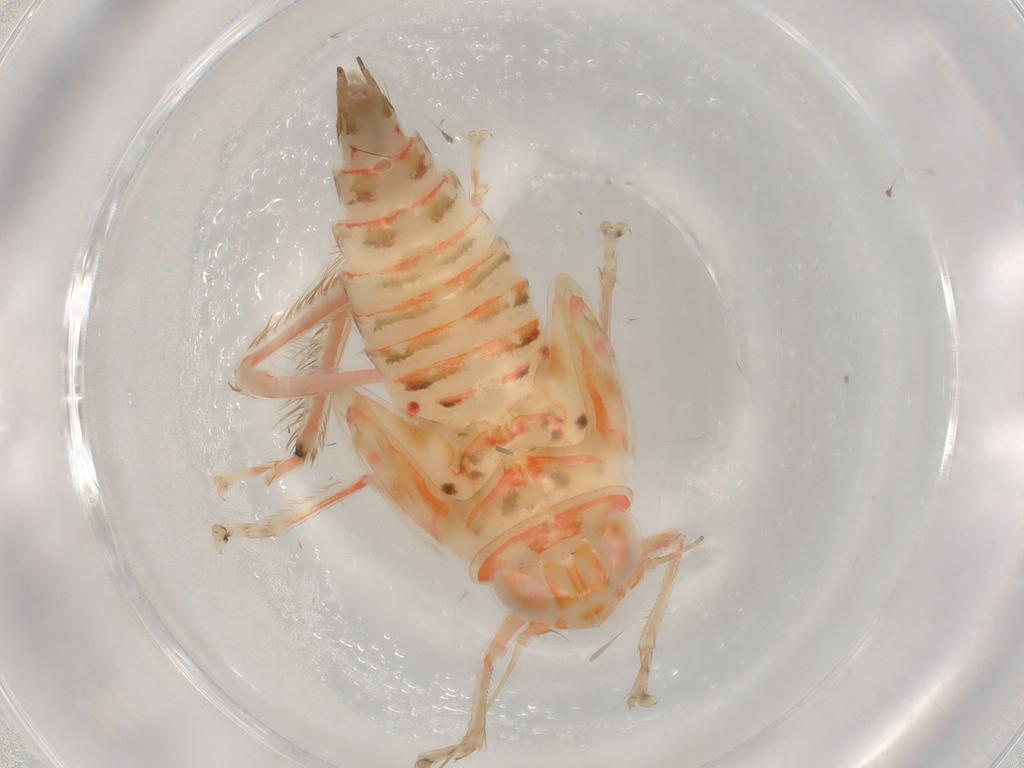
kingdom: Animalia
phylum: Arthropoda
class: Insecta
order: Hemiptera
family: Cicadellidae
